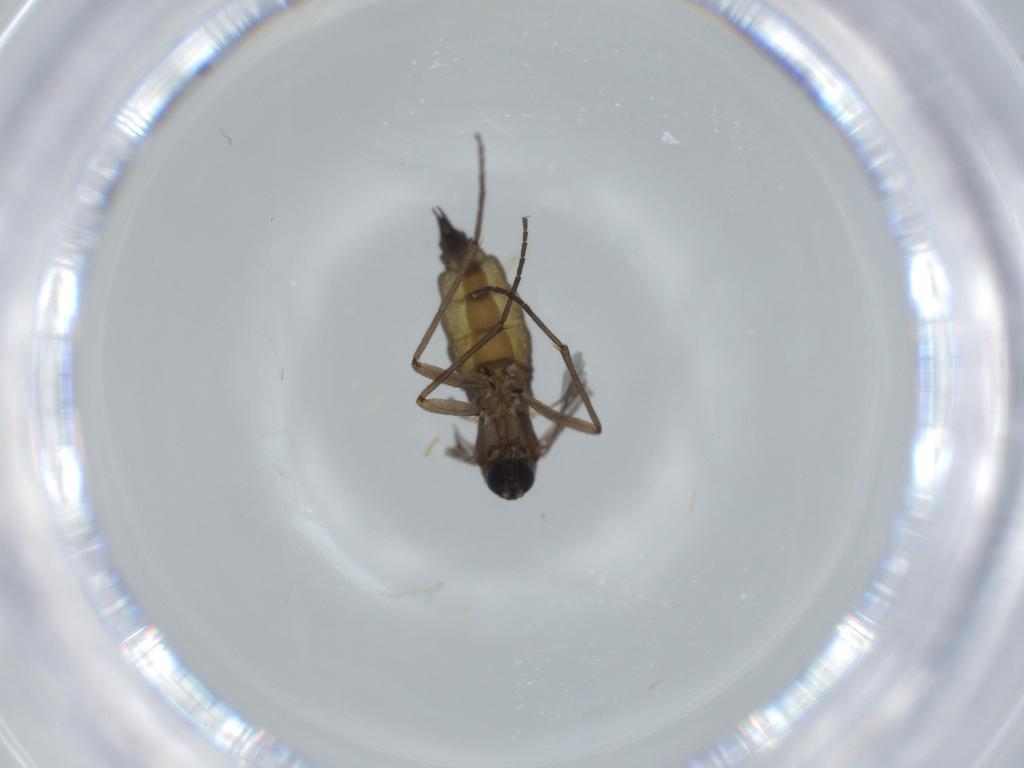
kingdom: Animalia
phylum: Arthropoda
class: Insecta
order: Diptera
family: Sciaridae
